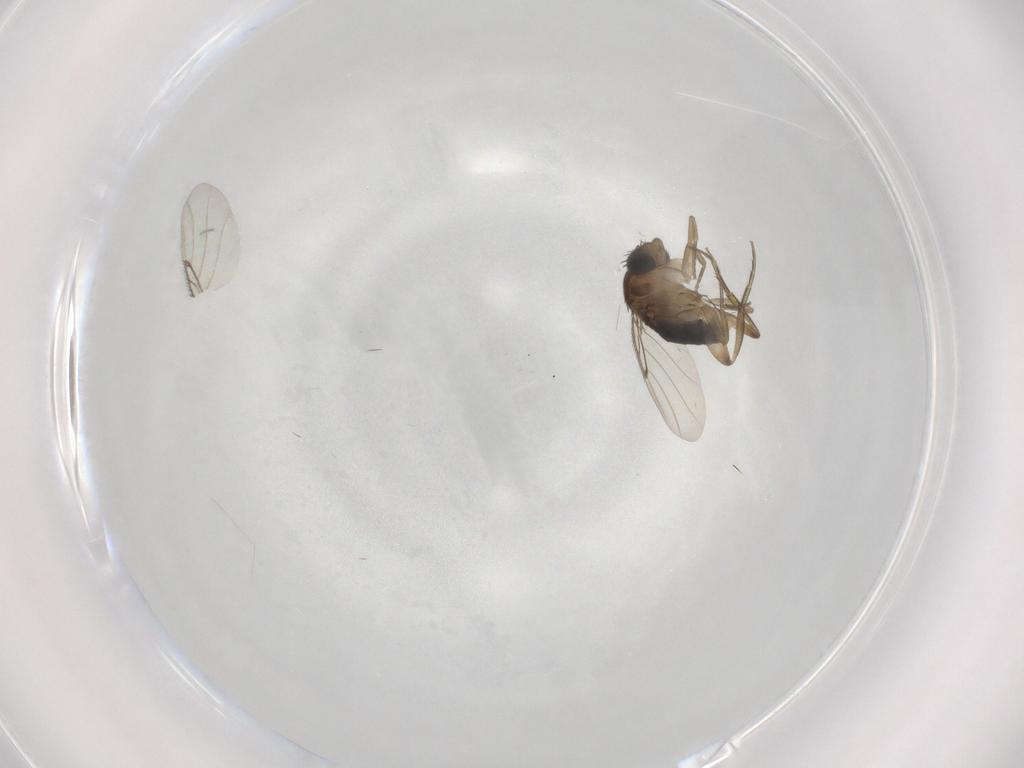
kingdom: Animalia
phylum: Arthropoda
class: Insecta
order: Diptera
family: Phoridae
